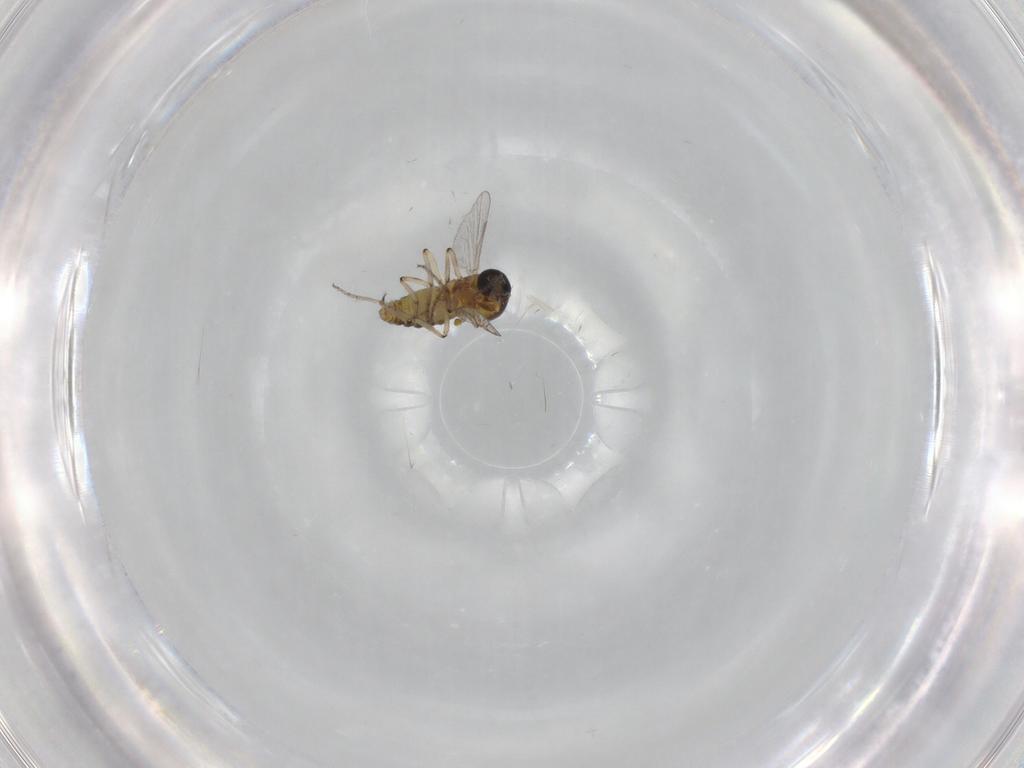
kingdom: Animalia
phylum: Arthropoda
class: Insecta
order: Diptera
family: Ceratopogonidae
